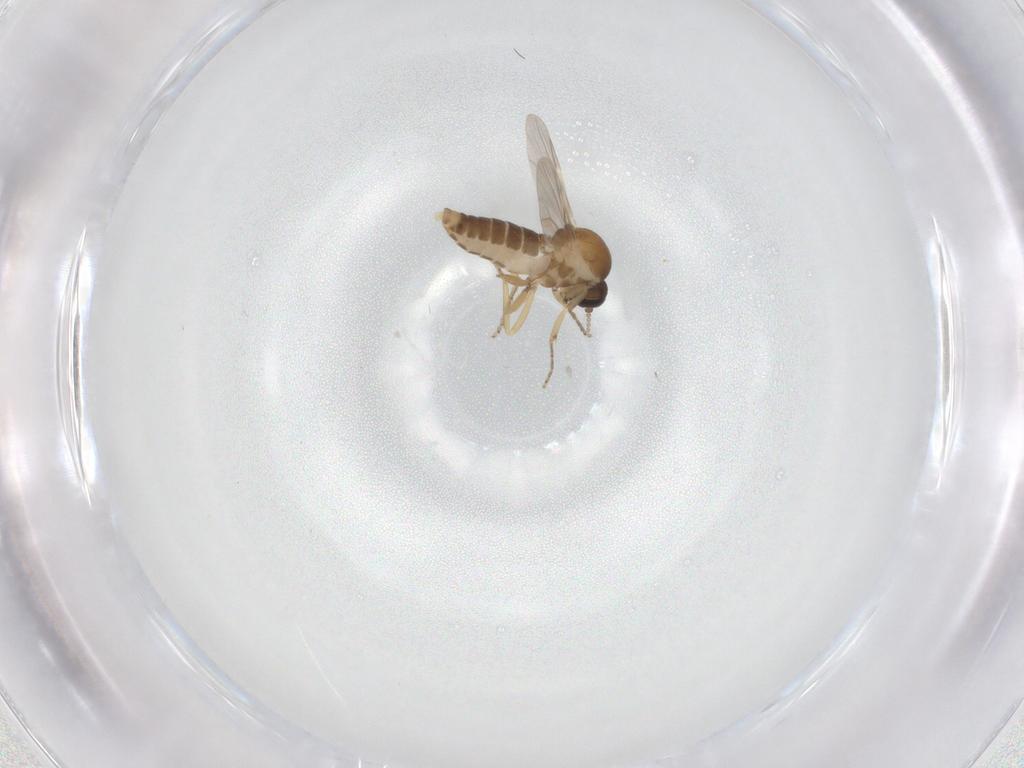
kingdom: Animalia
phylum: Arthropoda
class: Insecta
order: Diptera
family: Ceratopogonidae
